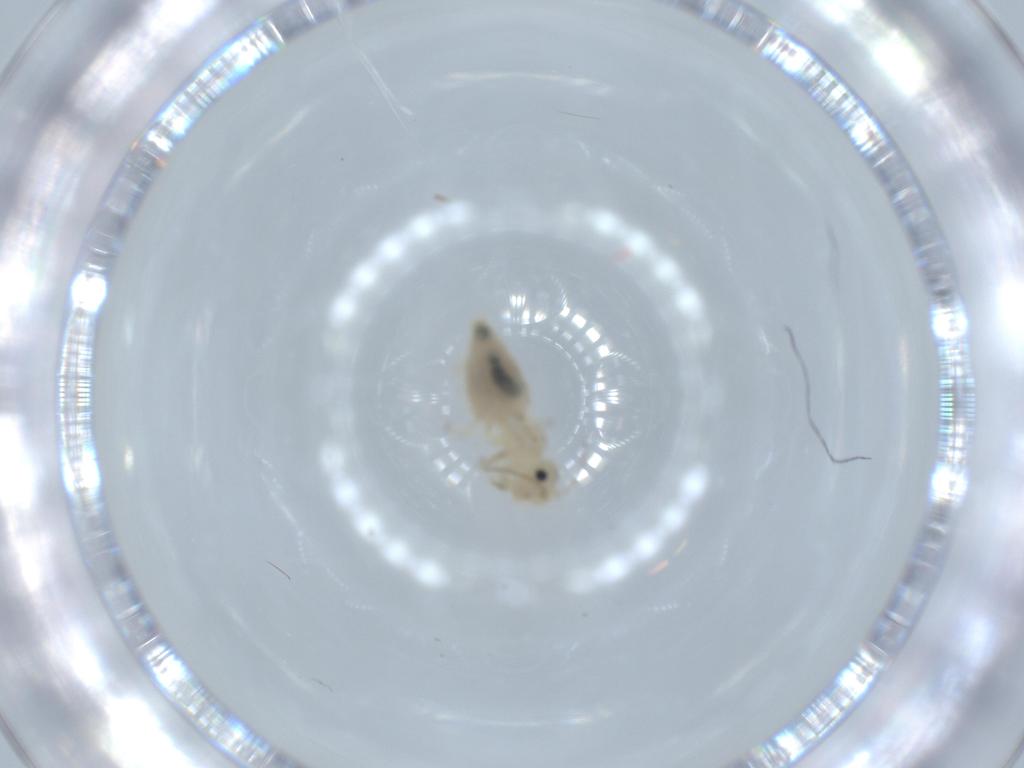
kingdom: Animalia
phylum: Arthropoda
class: Insecta
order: Psocodea
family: Caeciliusidae
